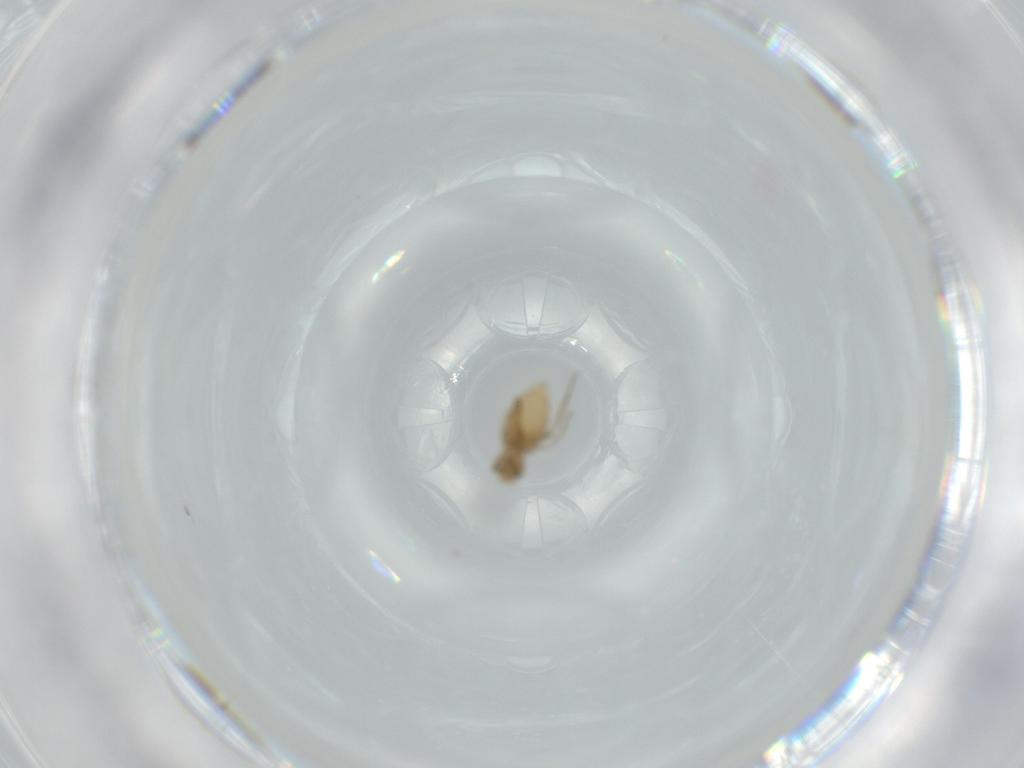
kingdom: Animalia
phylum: Arthropoda
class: Insecta
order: Diptera
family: Phoridae
